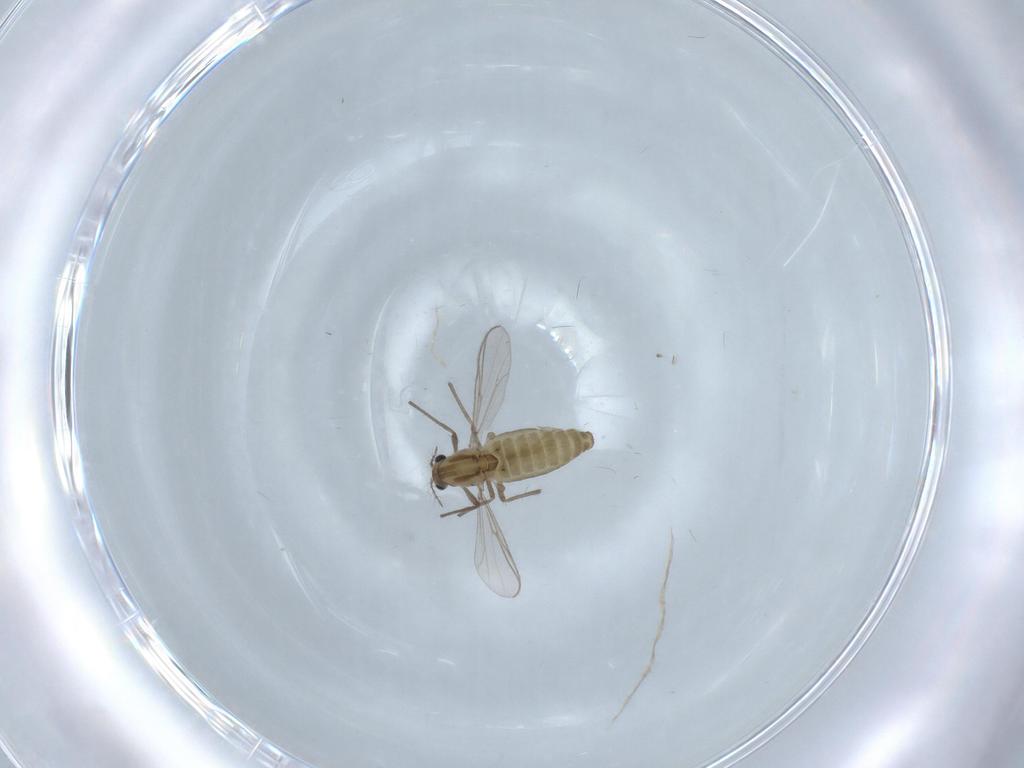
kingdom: Animalia
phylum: Arthropoda
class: Insecta
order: Diptera
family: Chironomidae
